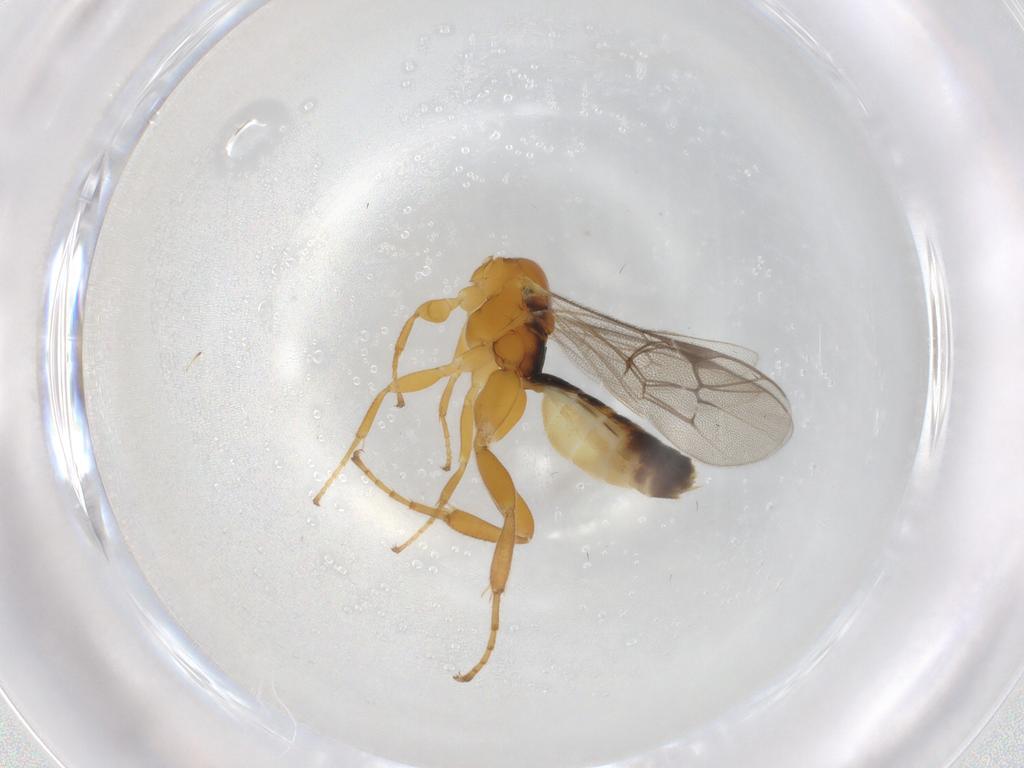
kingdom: Animalia
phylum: Arthropoda
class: Insecta
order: Hymenoptera
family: Ichneumonidae
